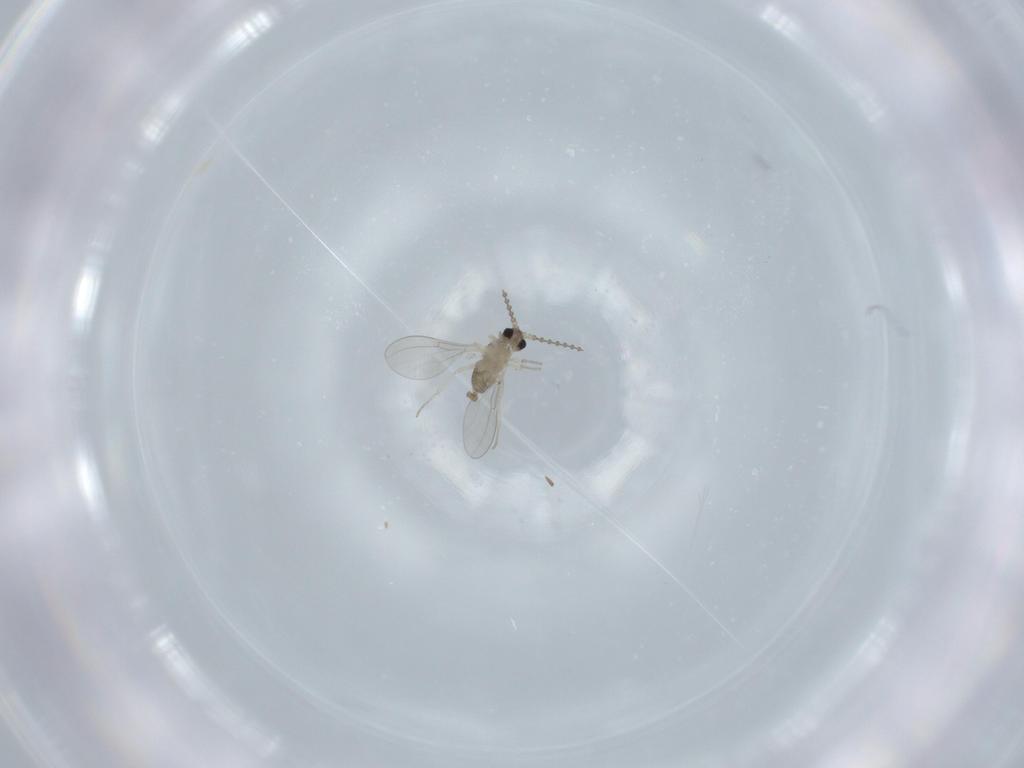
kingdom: Animalia
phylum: Arthropoda
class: Insecta
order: Diptera
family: Cecidomyiidae
